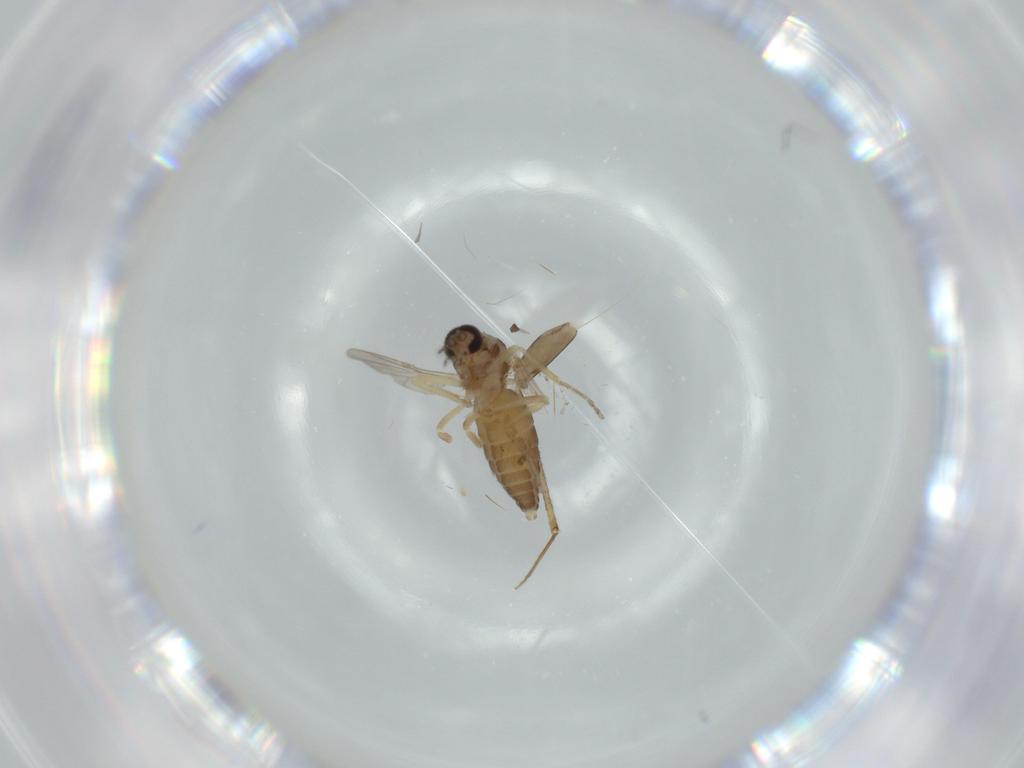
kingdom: Animalia
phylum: Arthropoda
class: Insecta
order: Diptera
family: Ceratopogonidae
